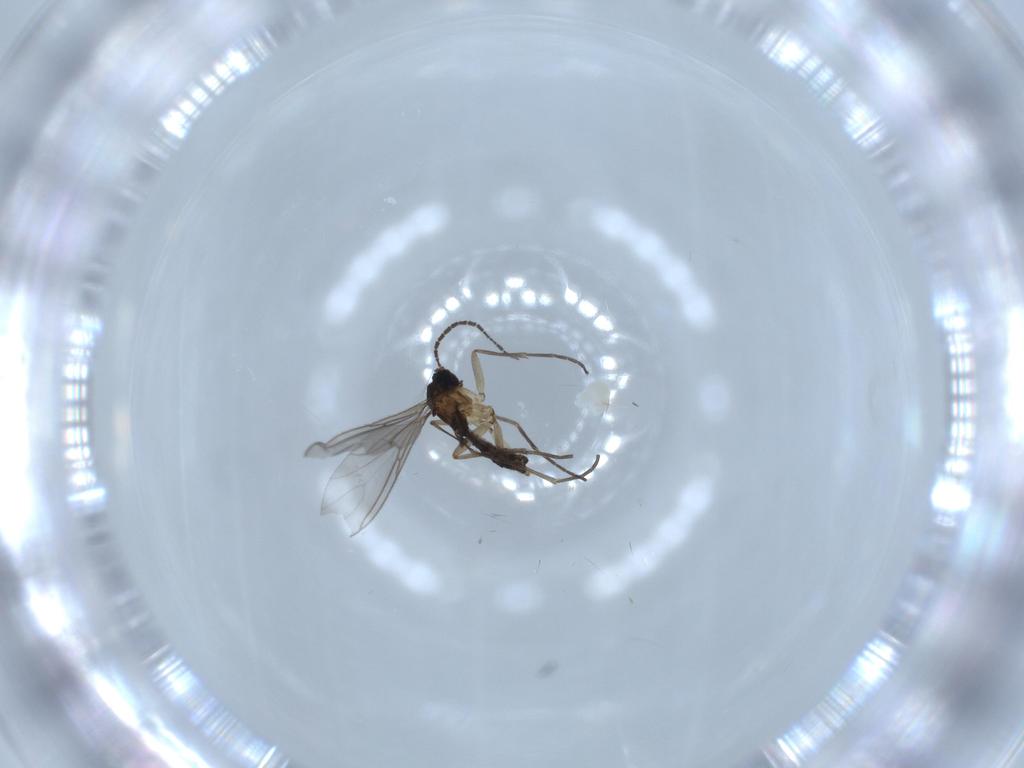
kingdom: Animalia
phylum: Arthropoda
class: Insecta
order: Diptera
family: Sciaridae
